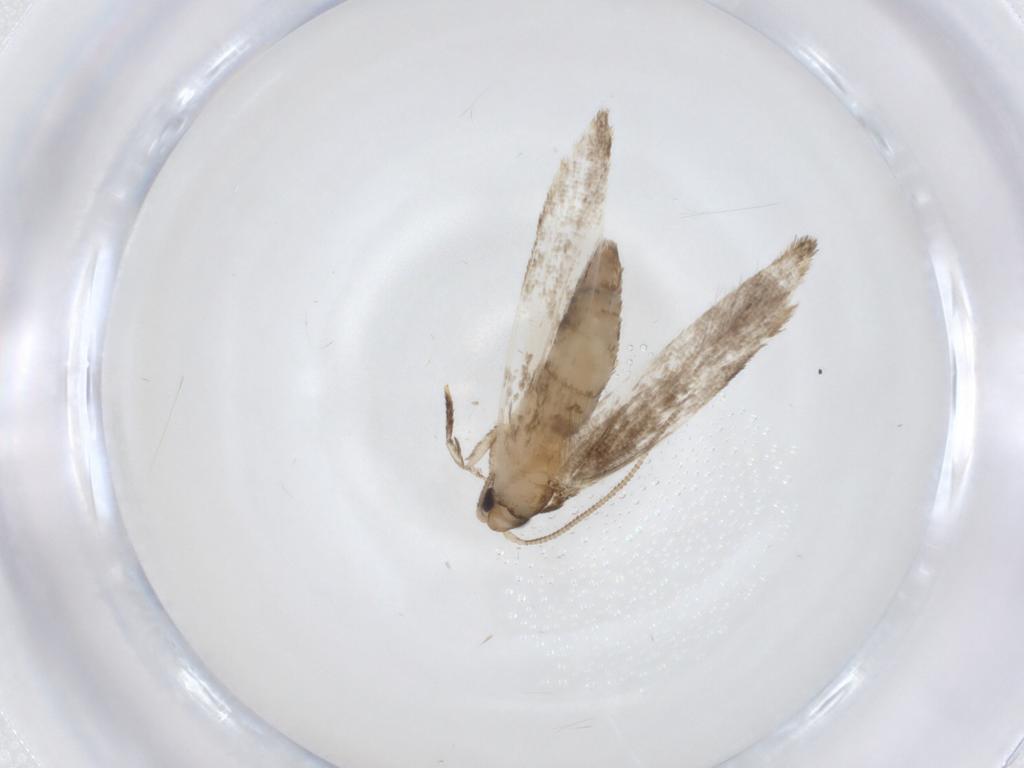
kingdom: Animalia
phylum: Arthropoda
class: Insecta
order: Lepidoptera
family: Tineidae
